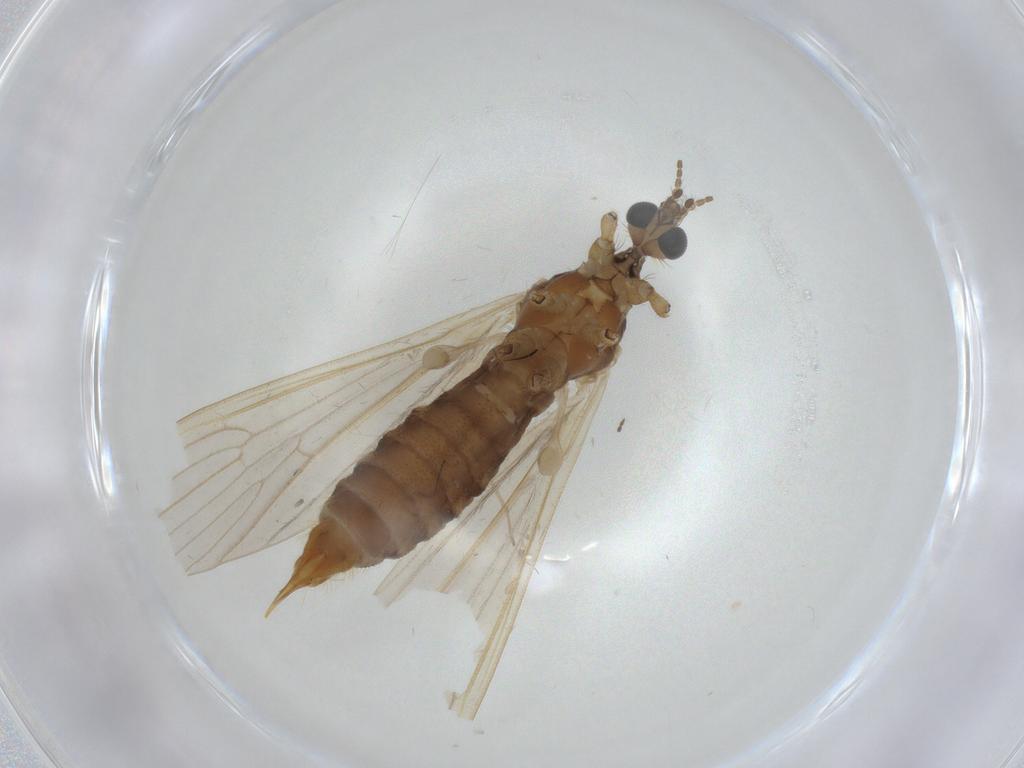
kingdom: Animalia
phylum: Arthropoda
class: Insecta
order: Diptera
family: Limoniidae
